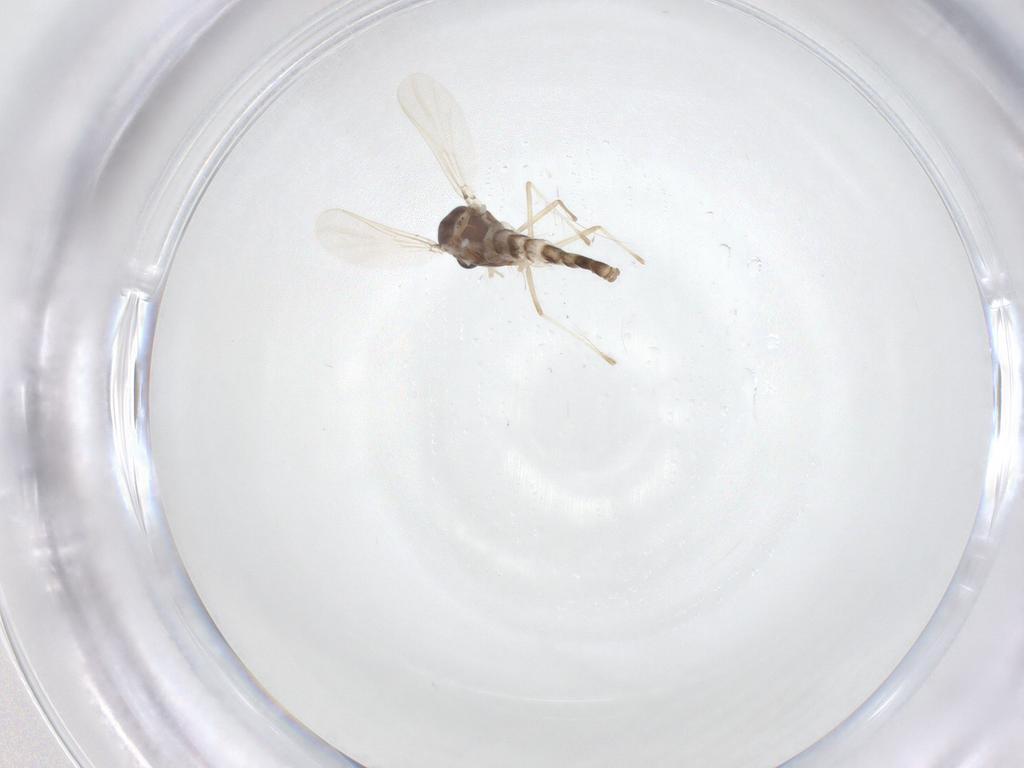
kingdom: Animalia
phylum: Arthropoda
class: Insecta
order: Diptera
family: Chironomidae
